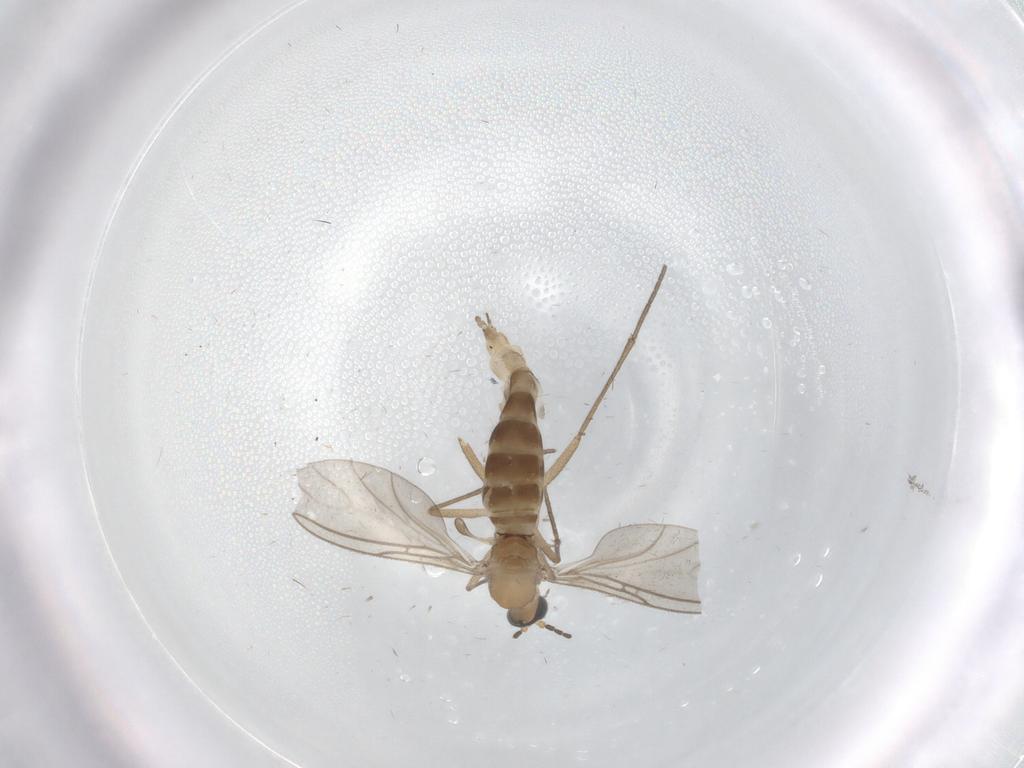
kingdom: Animalia
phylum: Arthropoda
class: Insecta
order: Diptera
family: Sciaridae
